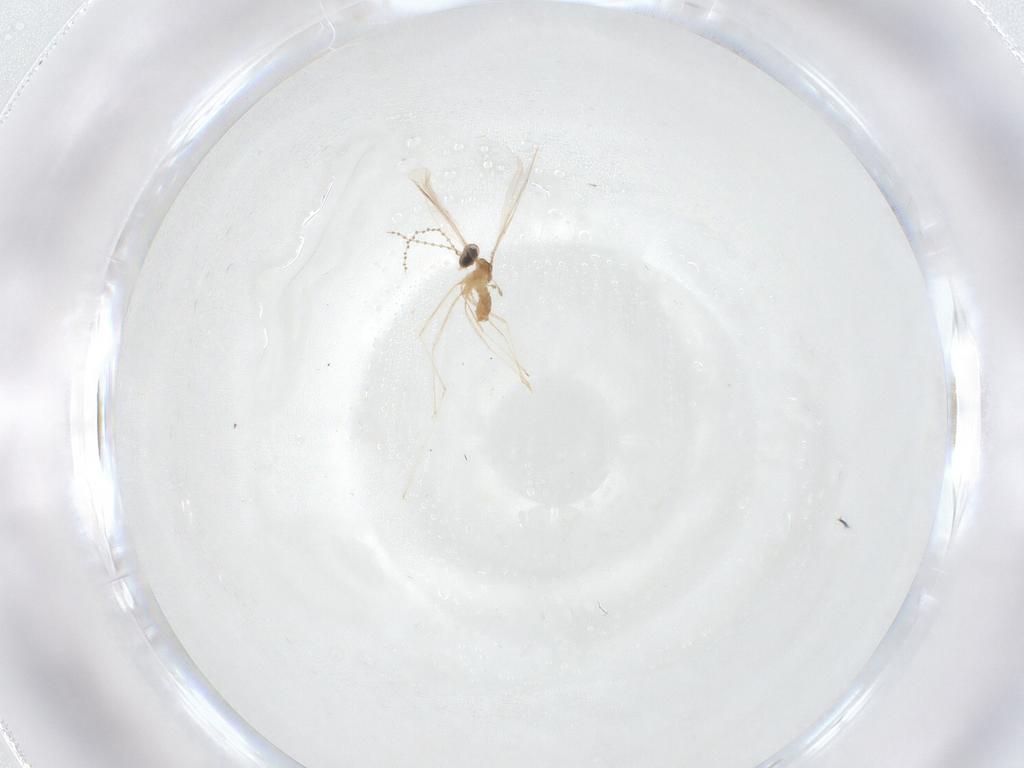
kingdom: Animalia
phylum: Arthropoda
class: Insecta
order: Diptera
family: Cecidomyiidae
